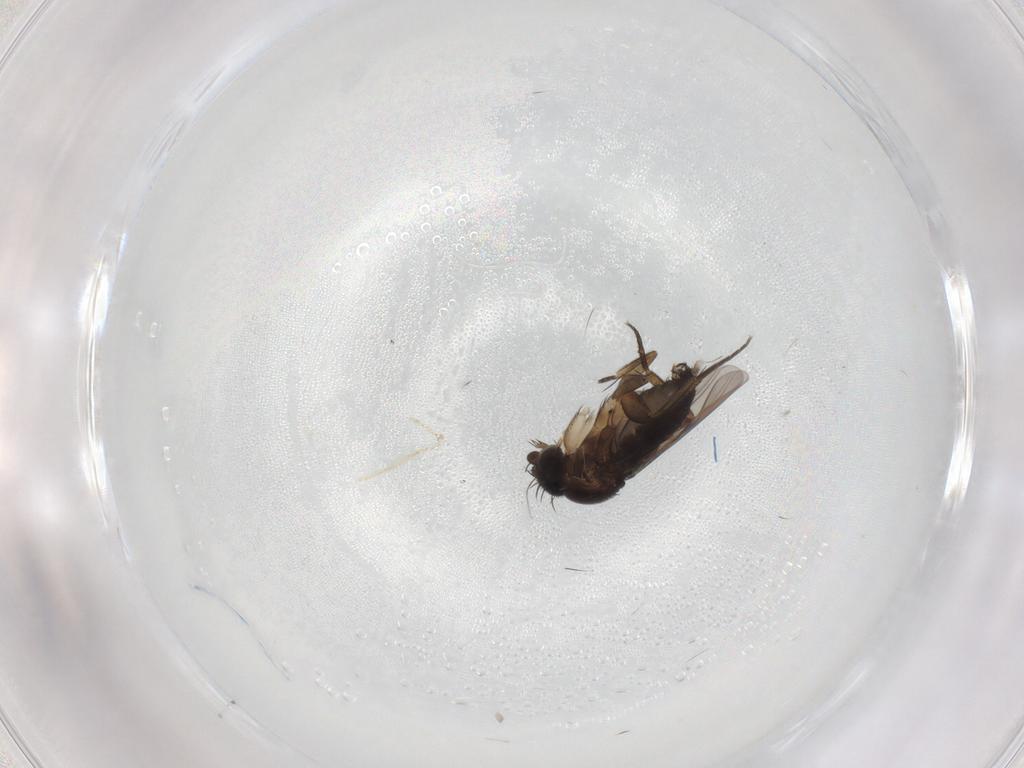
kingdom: Animalia
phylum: Arthropoda
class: Insecta
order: Diptera
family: Phoridae
